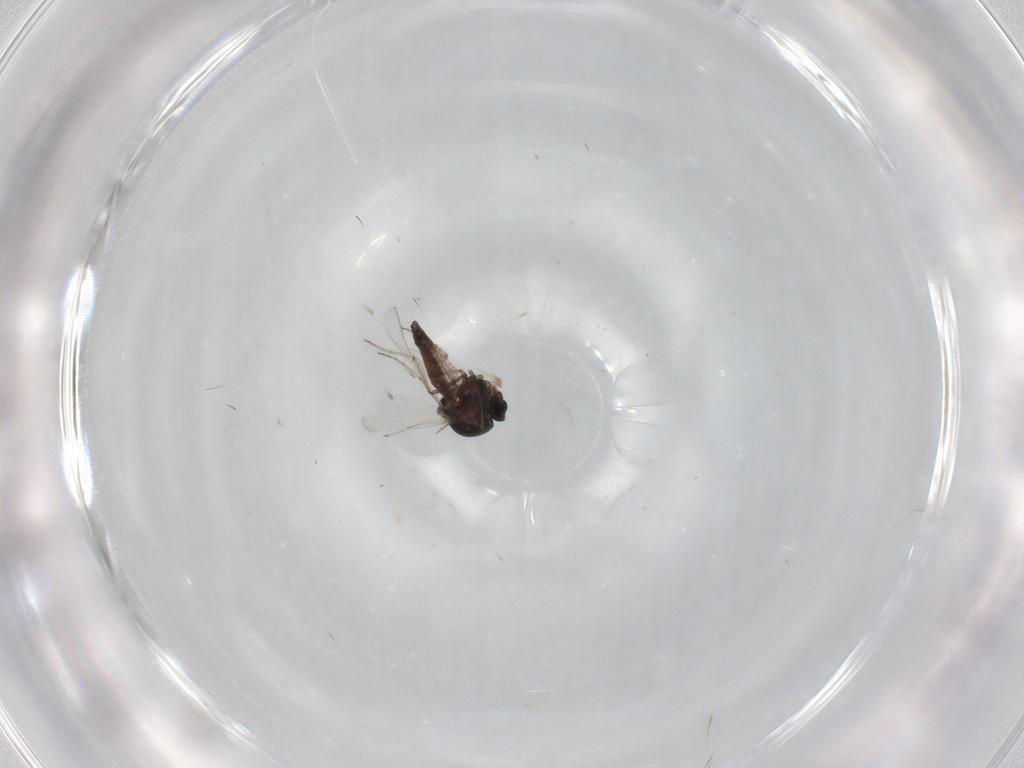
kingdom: Animalia
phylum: Arthropoda
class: Insecta
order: Diptera
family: Ceratopogonidae
